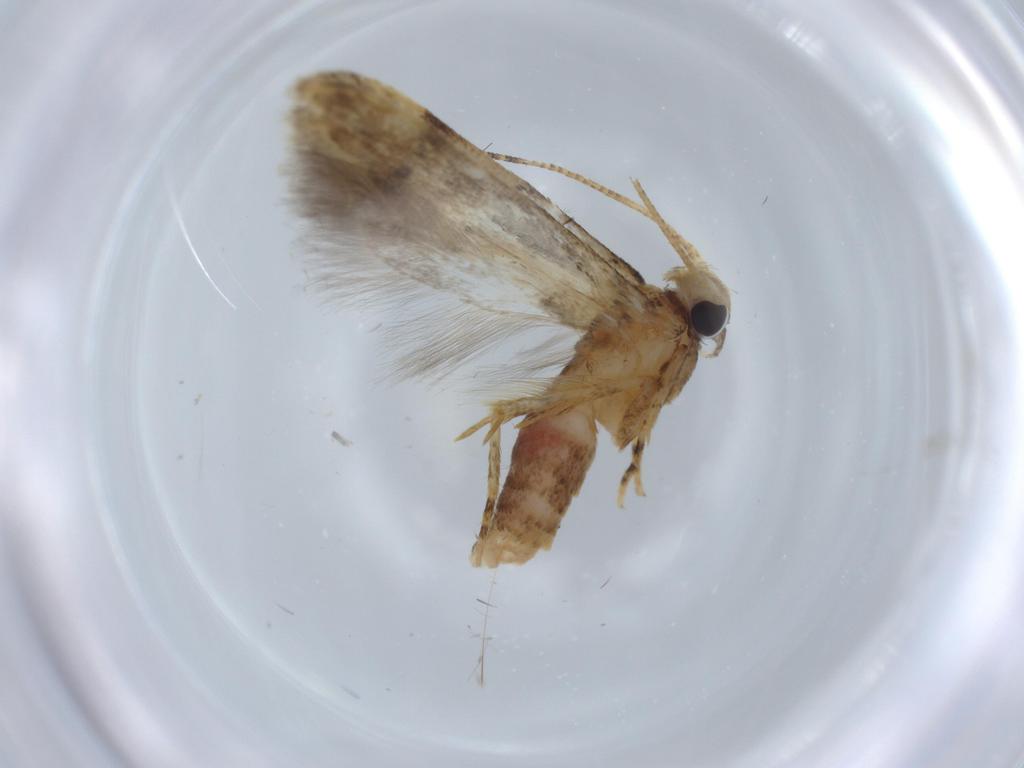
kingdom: Animalia
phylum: Arthropoda
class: Insecta
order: Lepidoptera
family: Gelechiidae
